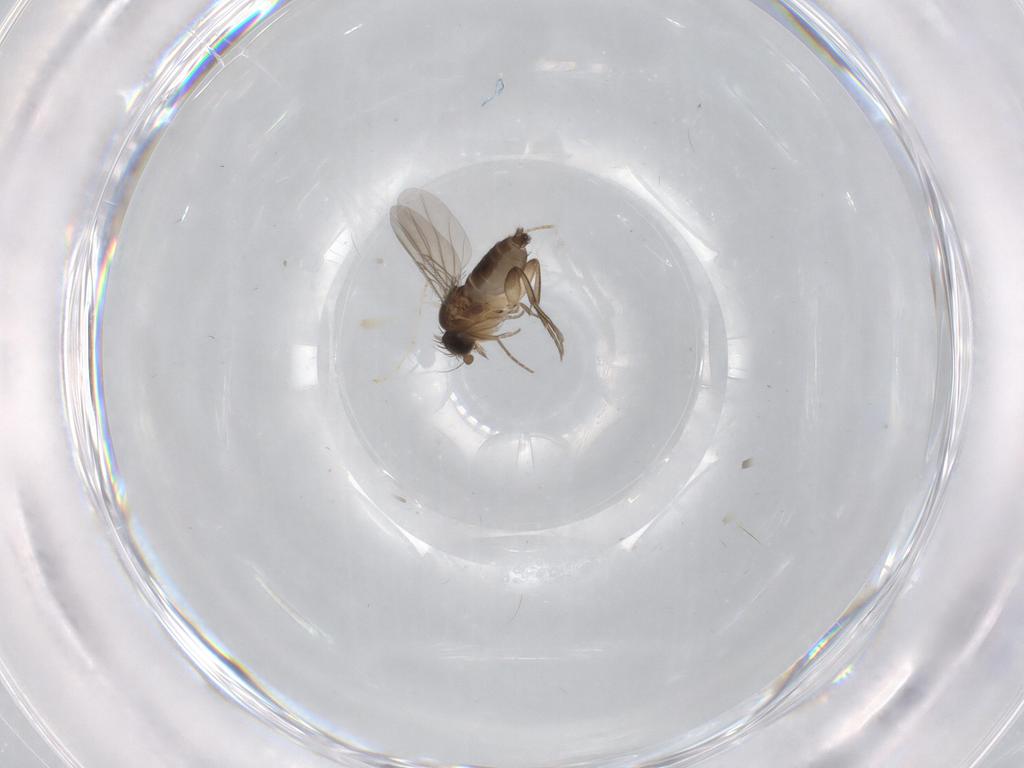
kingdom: Animalia
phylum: Arthropoda
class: Insecta
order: Diptera
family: Cecidomyiidae
